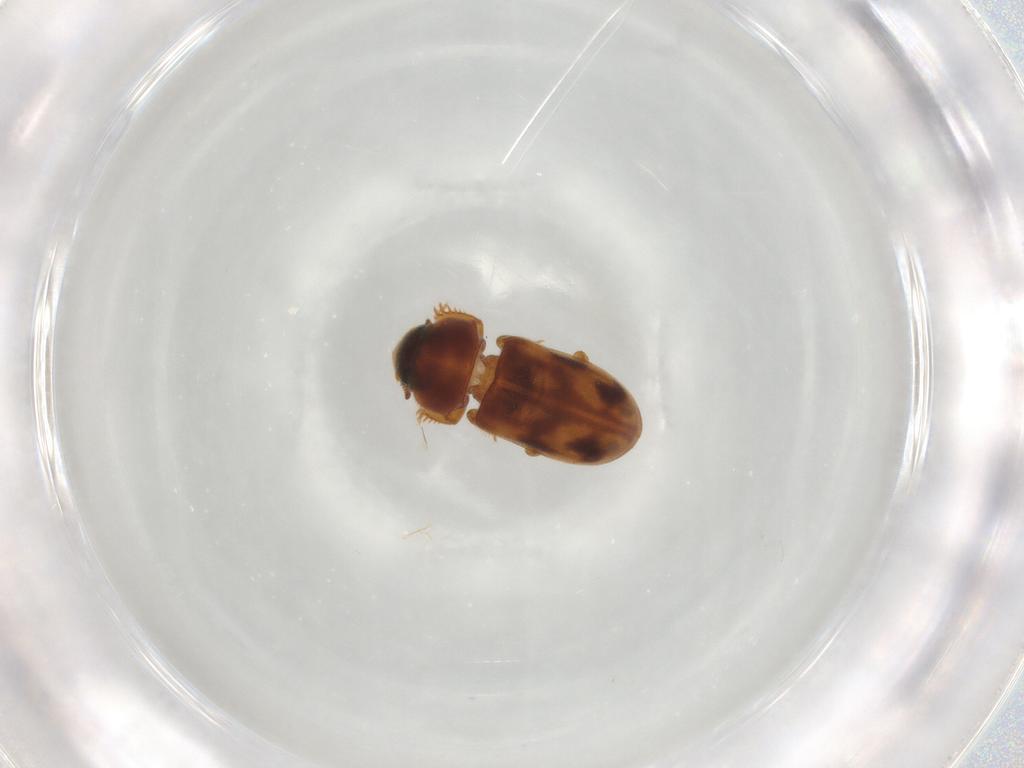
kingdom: Animalia
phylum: Arthropoda
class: Insecta
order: Coleoptera
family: Heteroceridae
